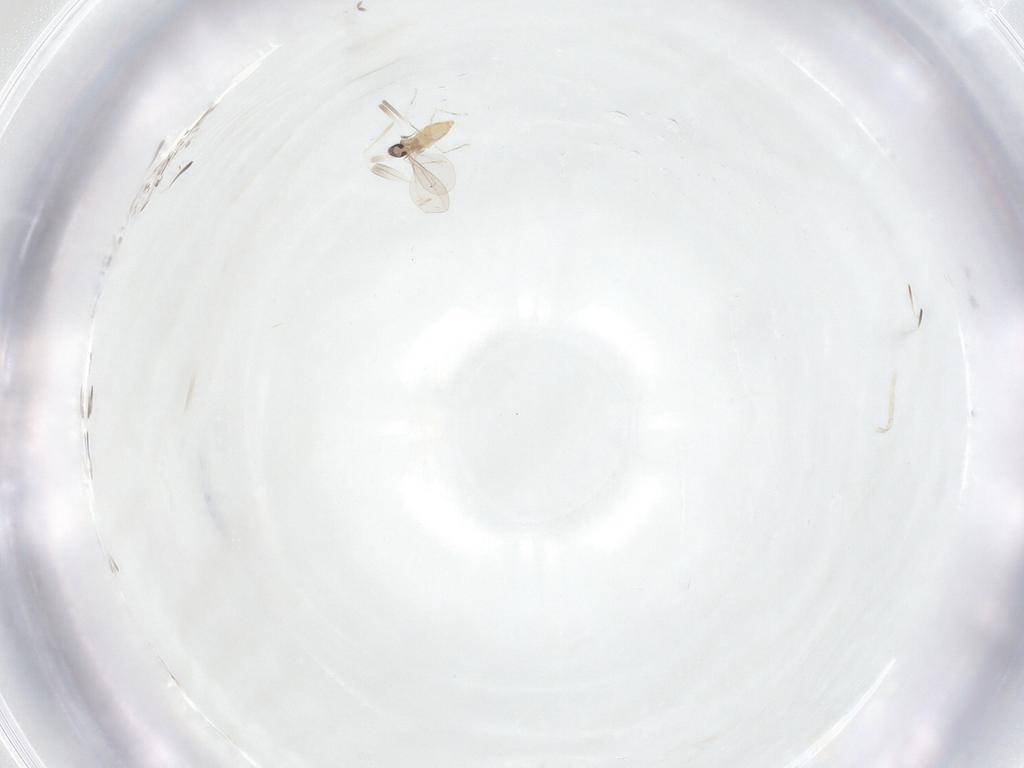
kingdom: Animalia
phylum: Arthropoda
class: Insecta
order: Diptera
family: Cecidomyiidae
